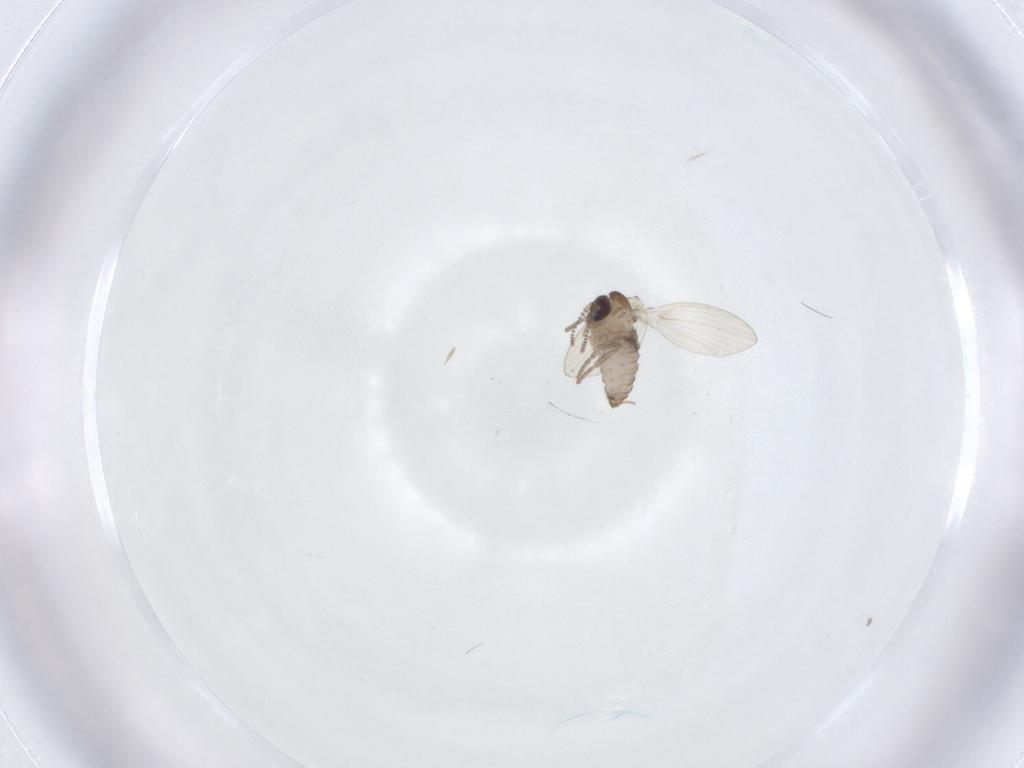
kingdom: Animalia
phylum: Arthropoda
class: Insecta
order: Diptera
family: Psychodidae
